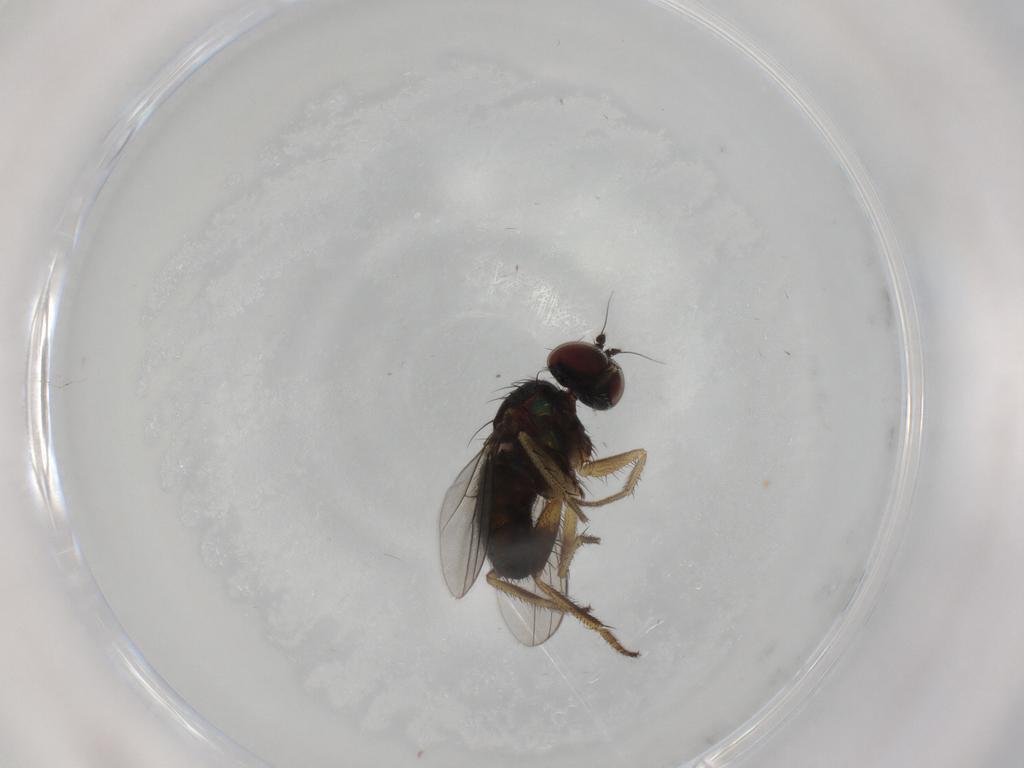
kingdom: Animalia
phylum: Arthropoda
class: Insecta
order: Diptera
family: Dolichopodidae
